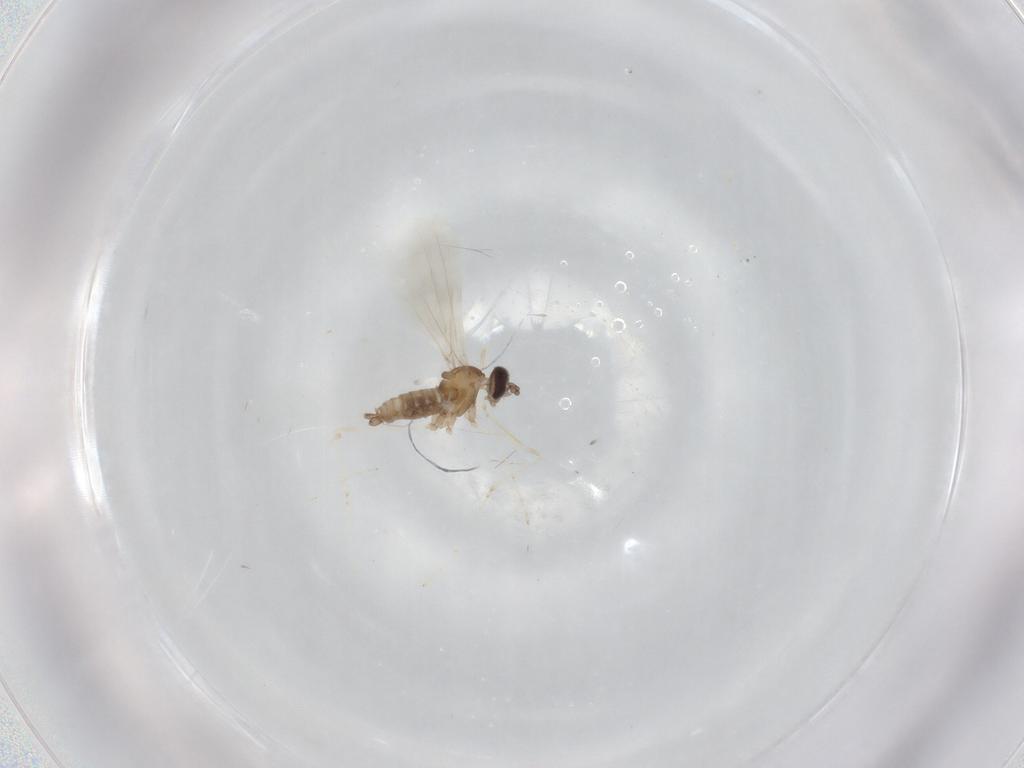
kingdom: Animalia
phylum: Arthropoda
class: Insecta
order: Diptera
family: Cecidomyiidae
